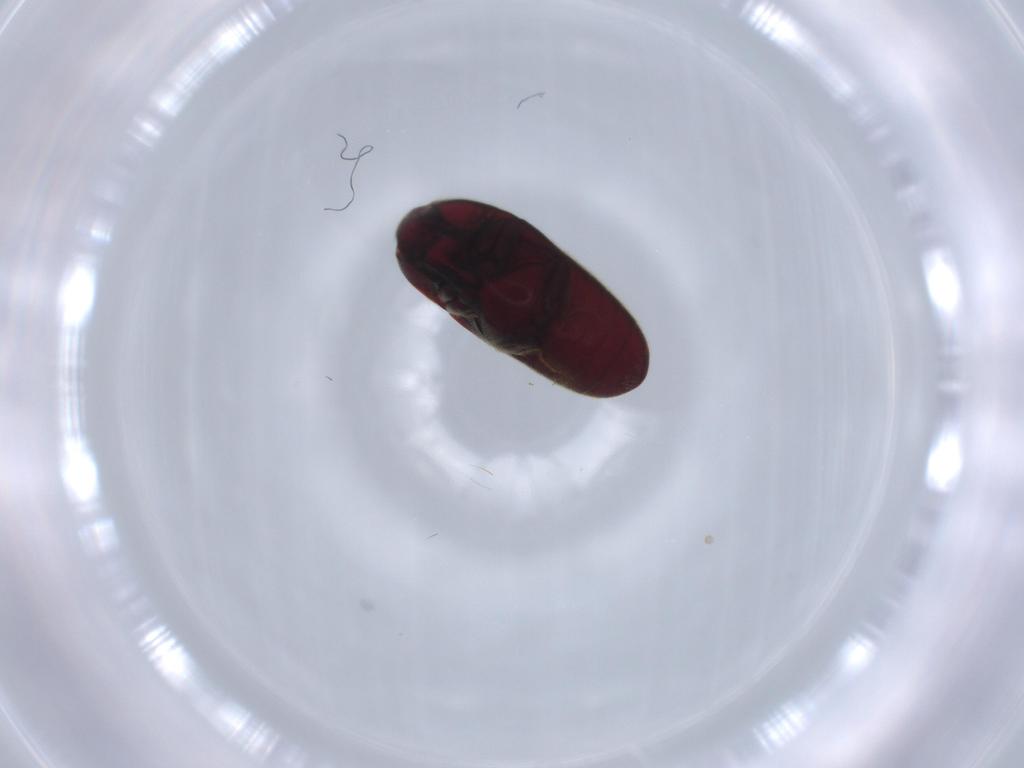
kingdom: Animalia
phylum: Arthropoda
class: Insecta
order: Coleoptera
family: Throscidae
